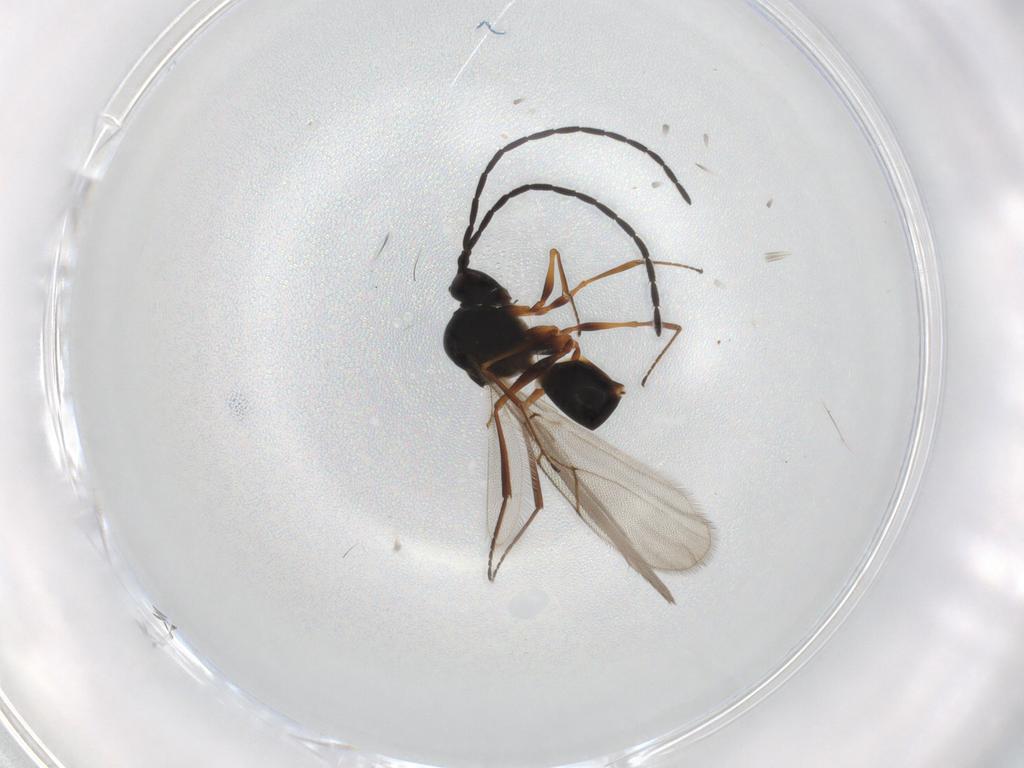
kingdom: Animalia
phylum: Arthropoda
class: Insecta
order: Hymenoptera
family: Figitidae
